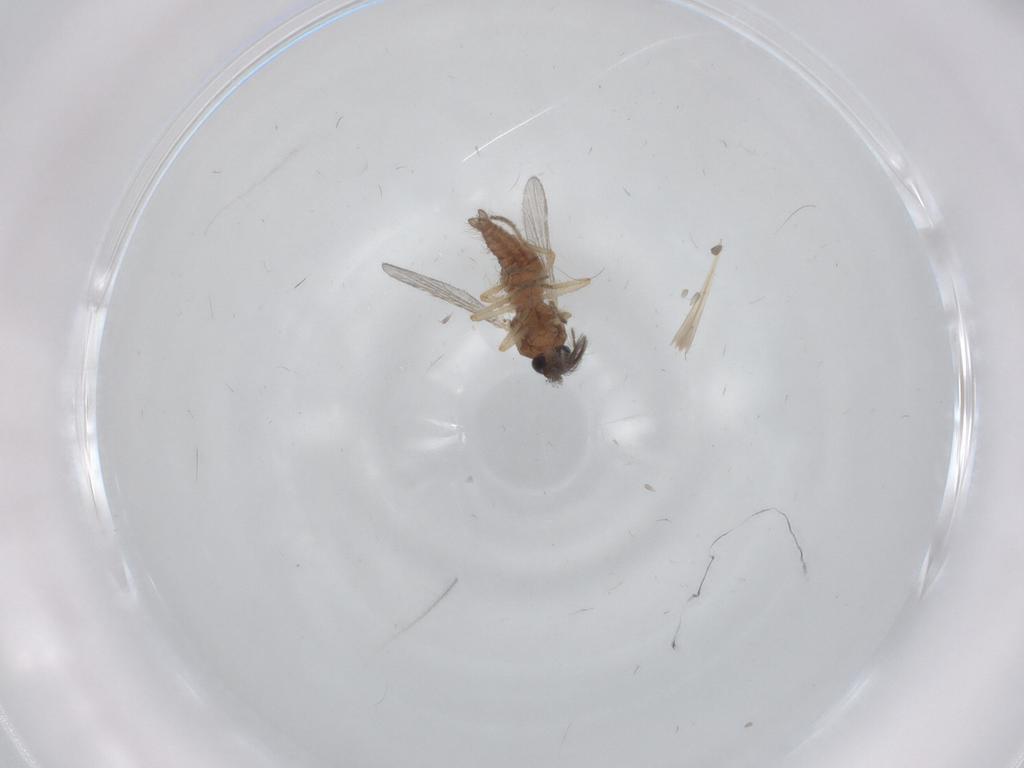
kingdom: Animalia
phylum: Arthropoda
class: Insecta
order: Diptera
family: Ceratopogonidae
